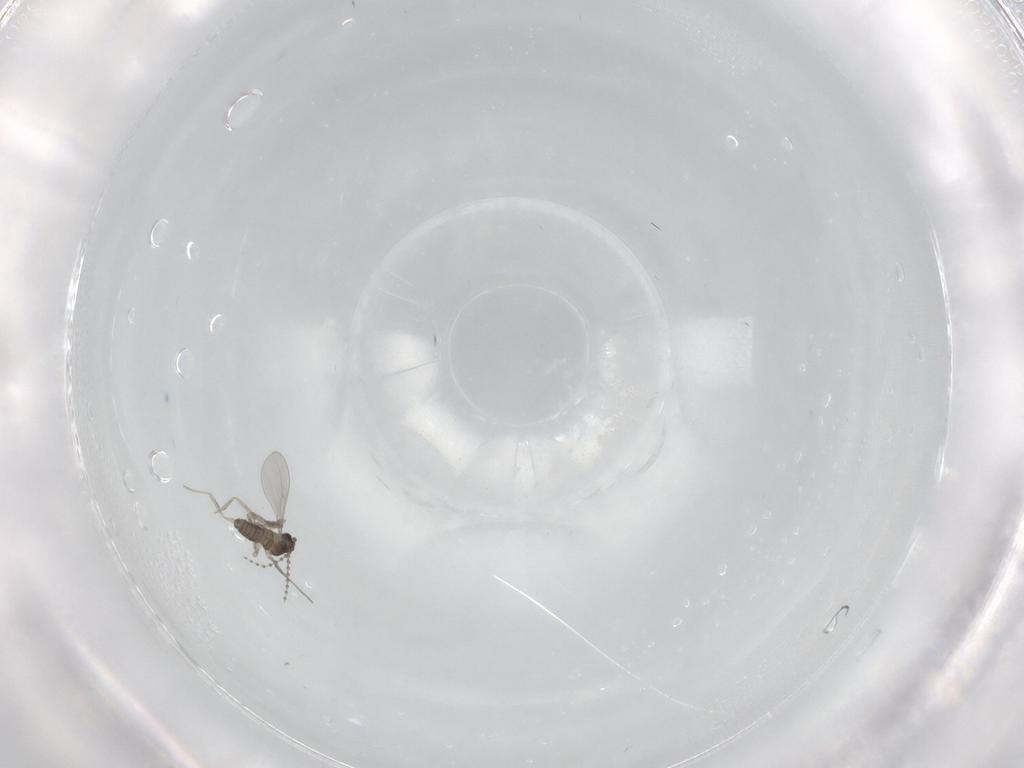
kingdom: Animalia
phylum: Arthropoda
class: Insecta
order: Diptera
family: Cecidomyiidae
